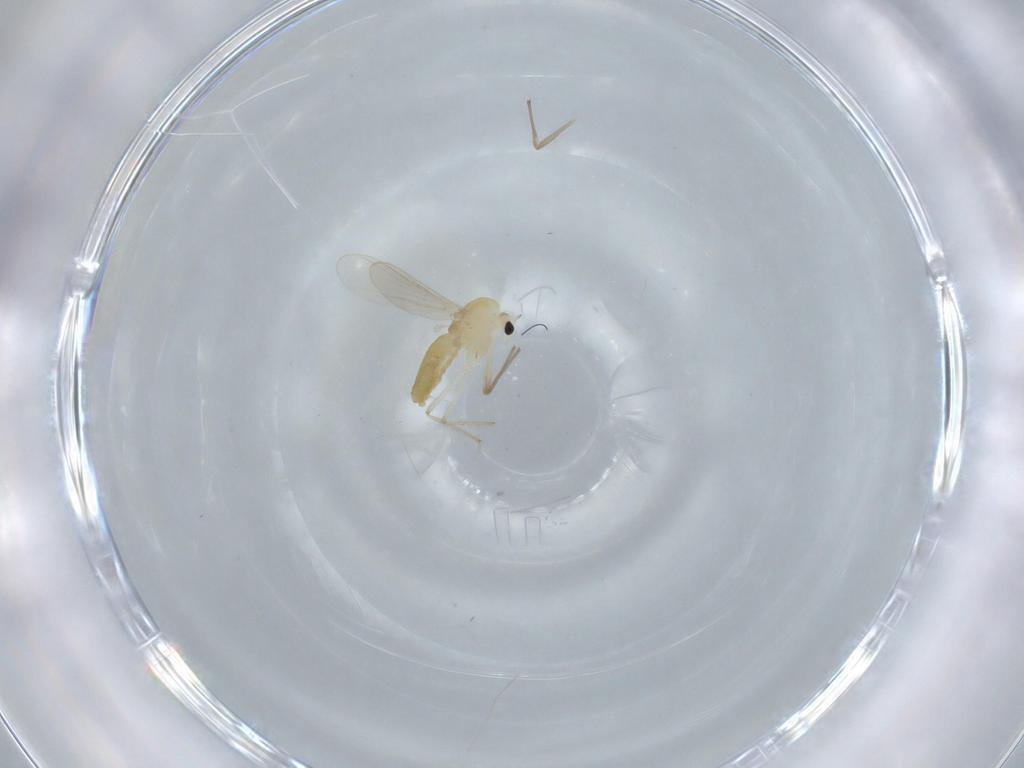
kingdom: Animalia
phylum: Arthropoda
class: Insecta
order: Diptera
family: Chironomidae
